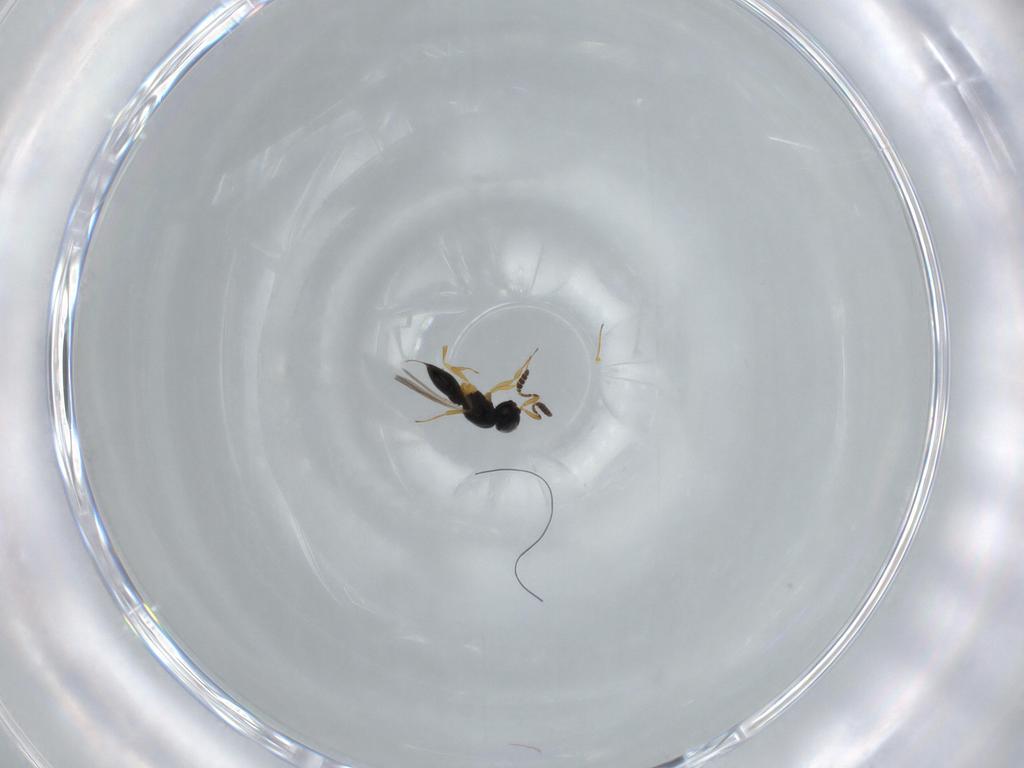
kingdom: Animalia
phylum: Arthropoda
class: Insecta
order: Hymenoptera
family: Scelionidae
